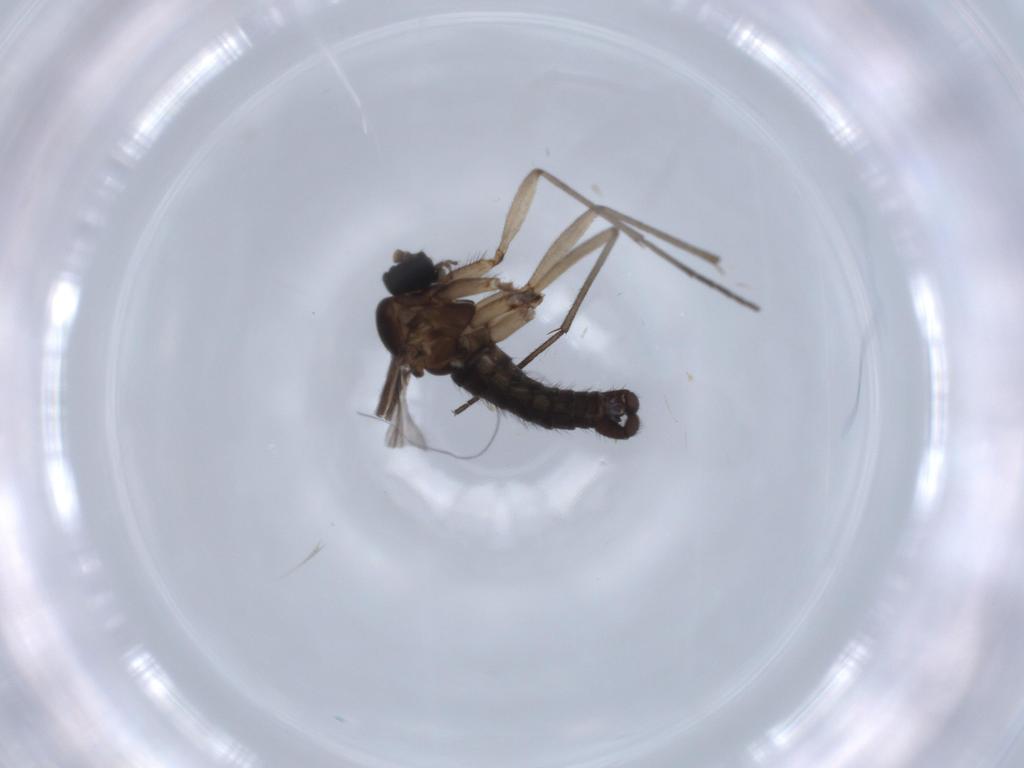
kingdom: Animalia
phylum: Arthropoda
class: Insecta
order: Diptera
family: Sciaridae
